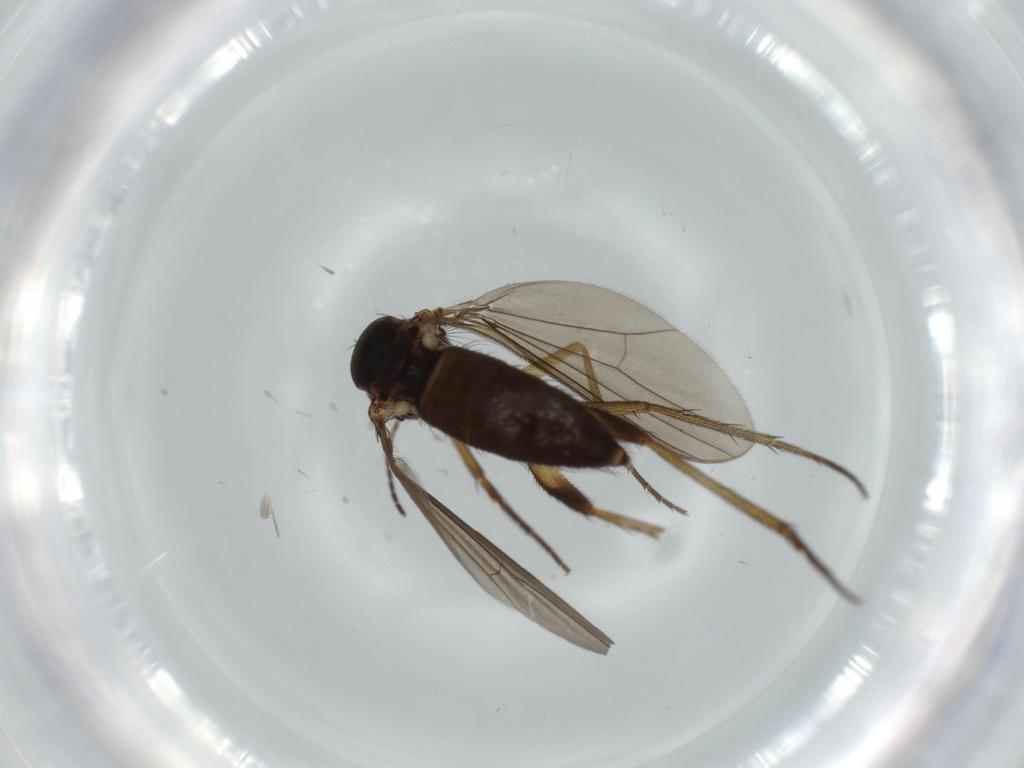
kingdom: Animalia
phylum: Arthropoda
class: Insecta
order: Diptera
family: Dolichopodidae
